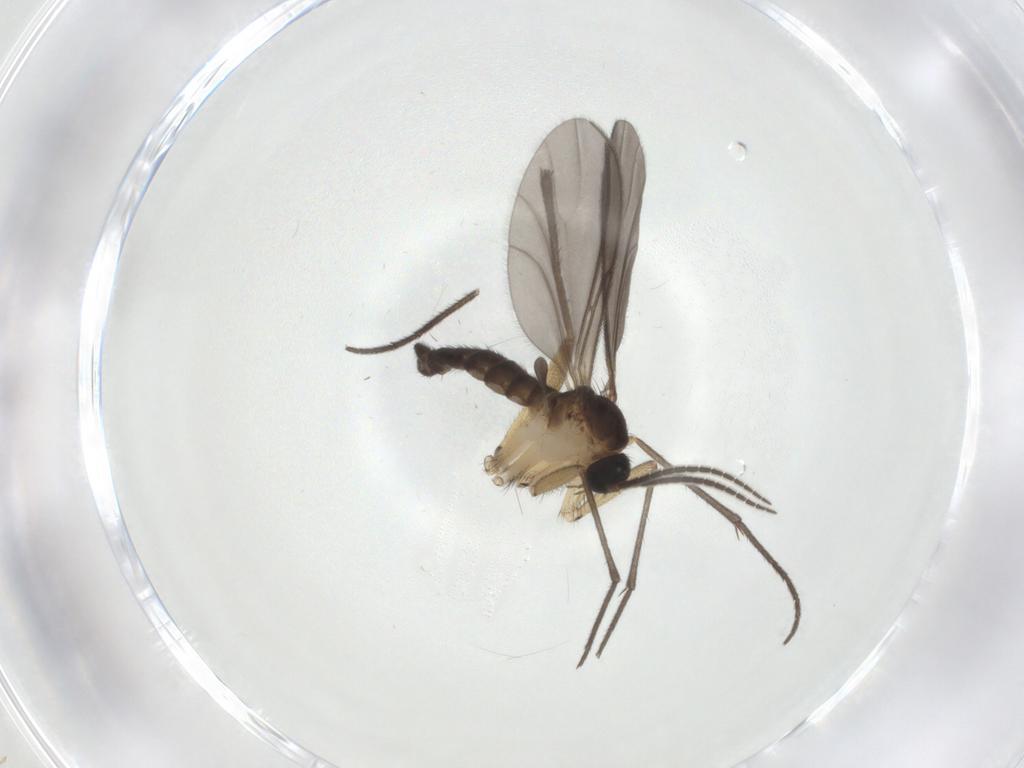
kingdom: Animalia
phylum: Arthropoda
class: Insecta
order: Diptera
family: Sciaridae
